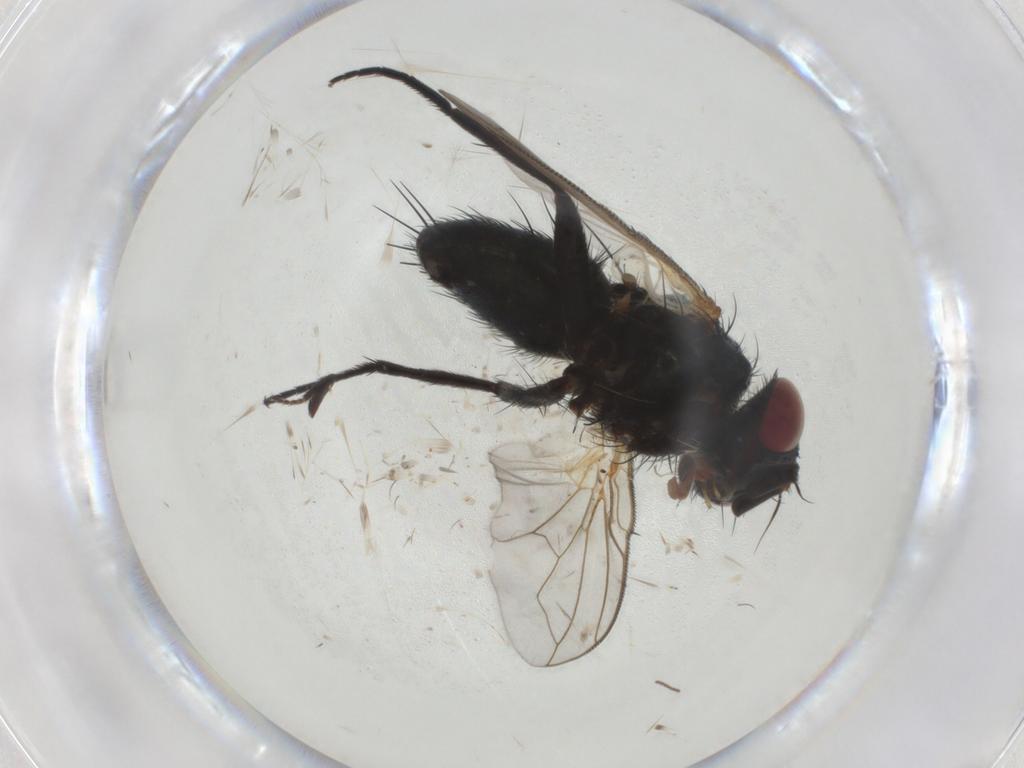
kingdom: Animalia
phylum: Arthropoda
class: Insecta
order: Diptera
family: Tachinidae
